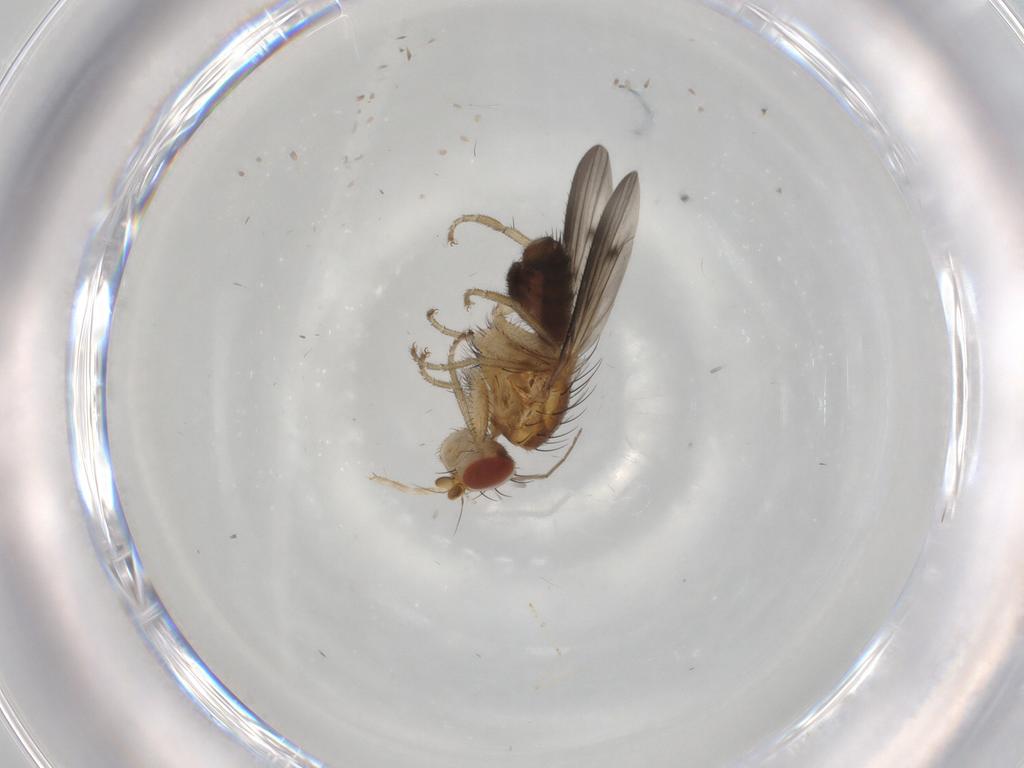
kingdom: Animalia
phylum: Arthropoda
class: Insecta
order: Diptera
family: Heleomyzidae
